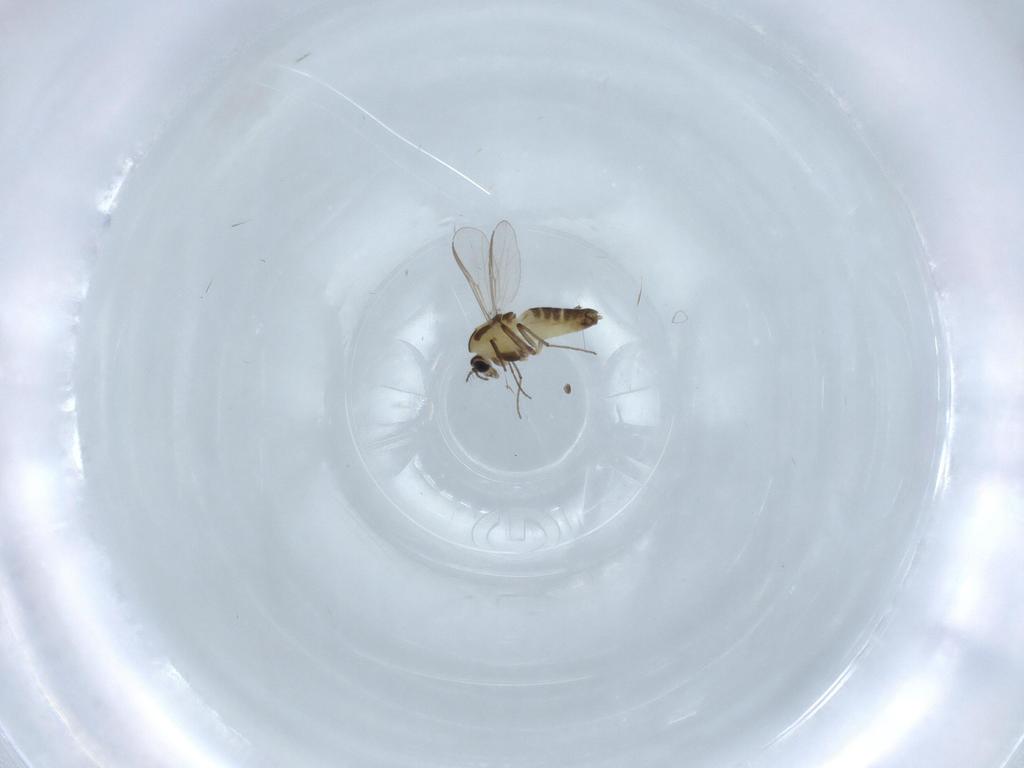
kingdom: Animalia
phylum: Arthropoda
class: Insecta
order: Diptera
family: Chironomidae
